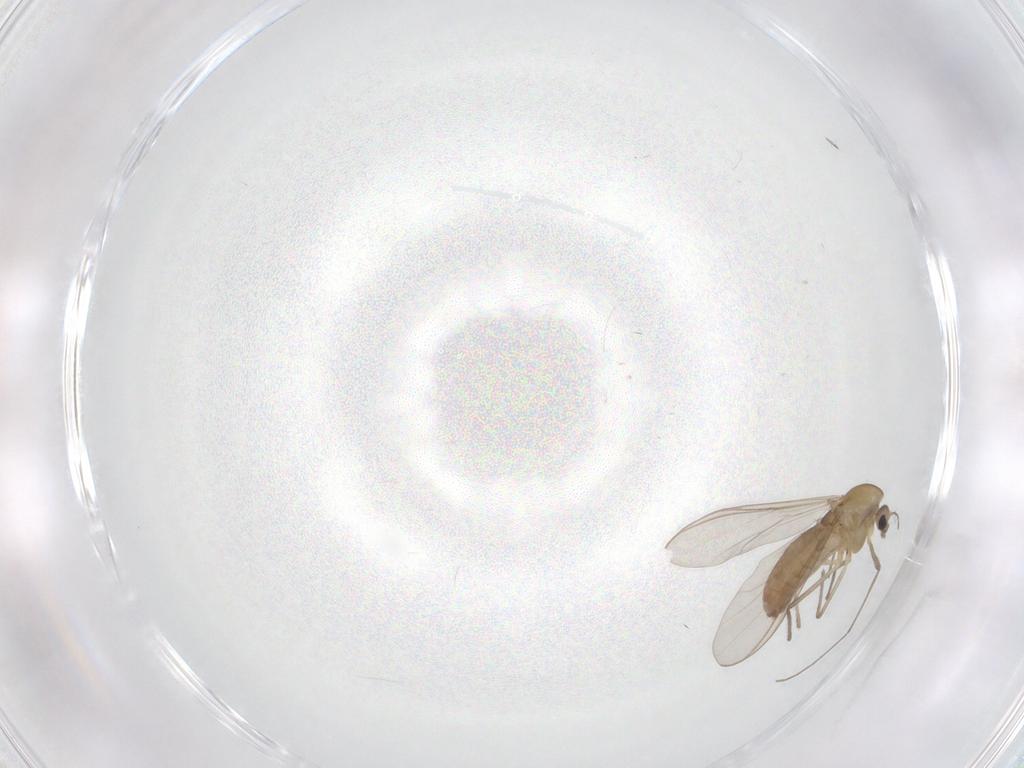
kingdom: Animalia
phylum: Arthropoda
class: Insecta
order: Diptera
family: Chironomidae
